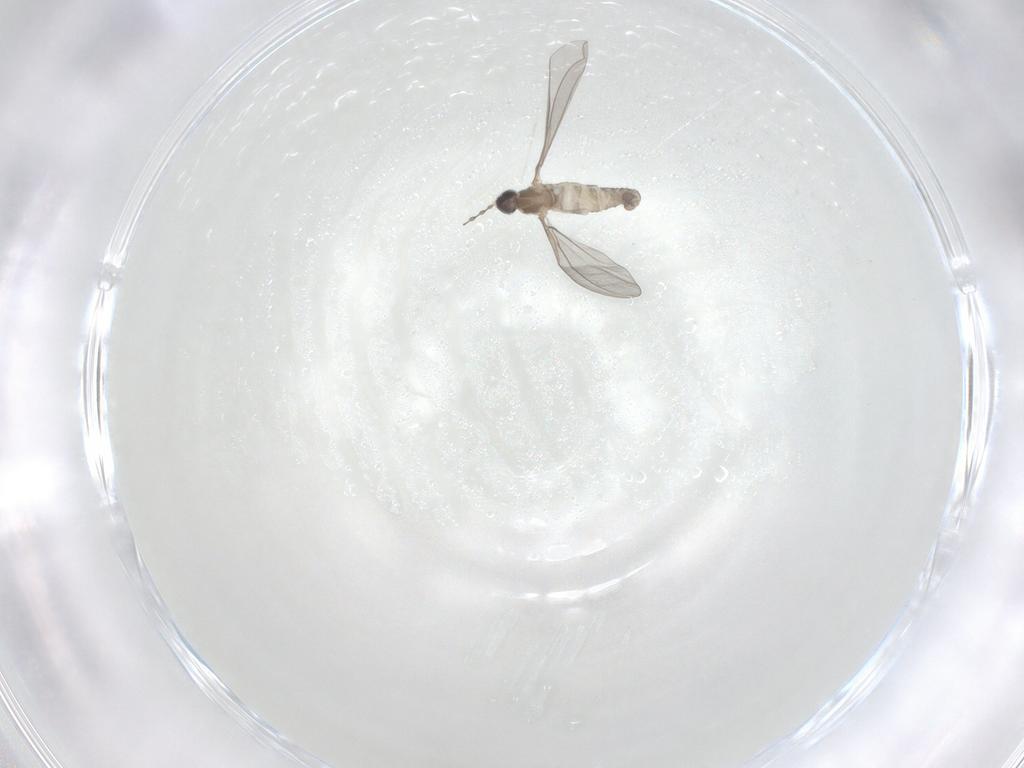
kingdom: Animalia
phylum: Arthropoda
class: Insecta
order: Diptera
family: Cecidomyiidae
